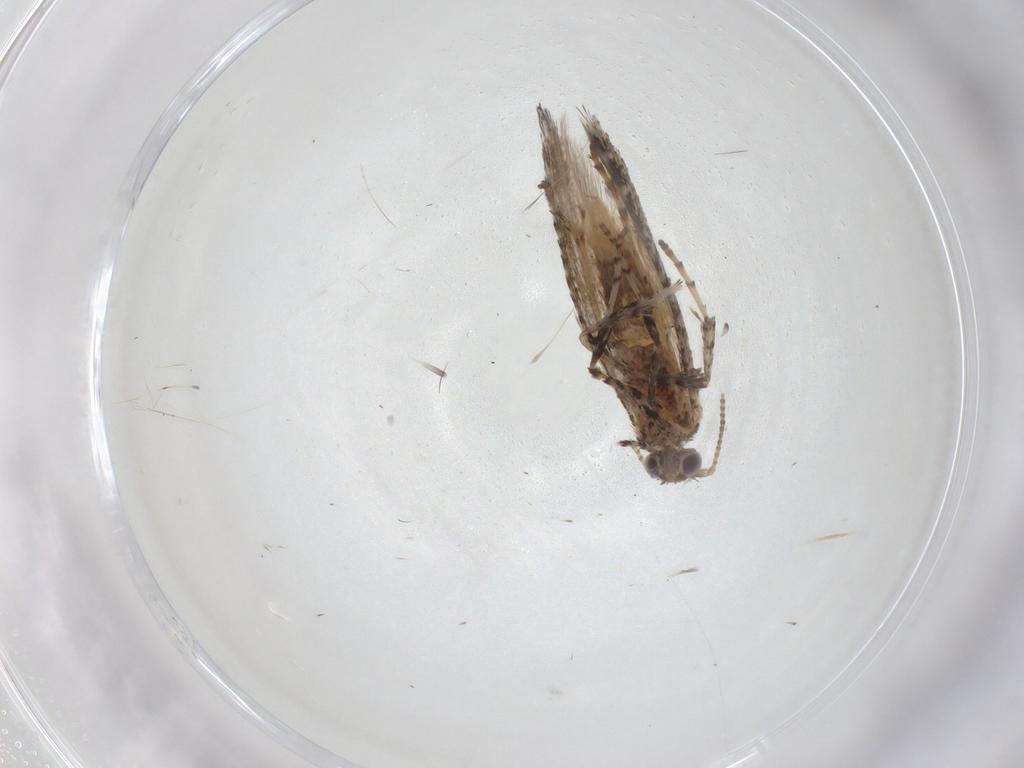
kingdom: Animalia
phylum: Arthropoda
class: Insecta
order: Lepidoptera
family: Gracillariidae
